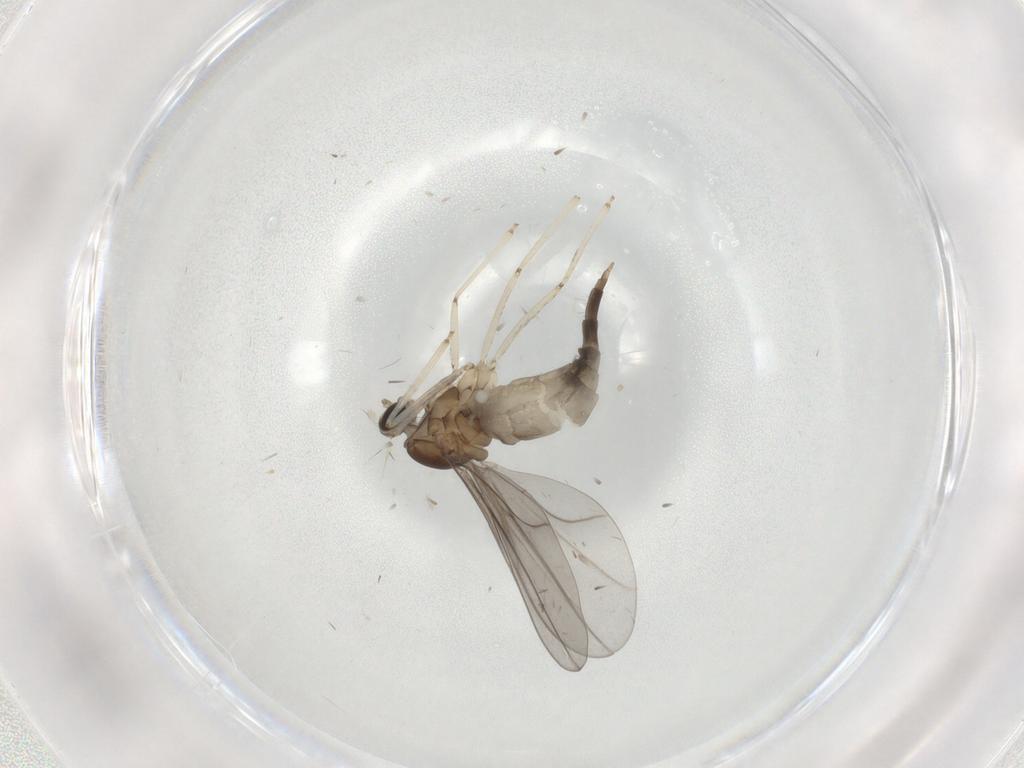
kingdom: Animalia
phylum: Arthropoda
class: Insecta
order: Diptera
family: Cecidomyiidae
